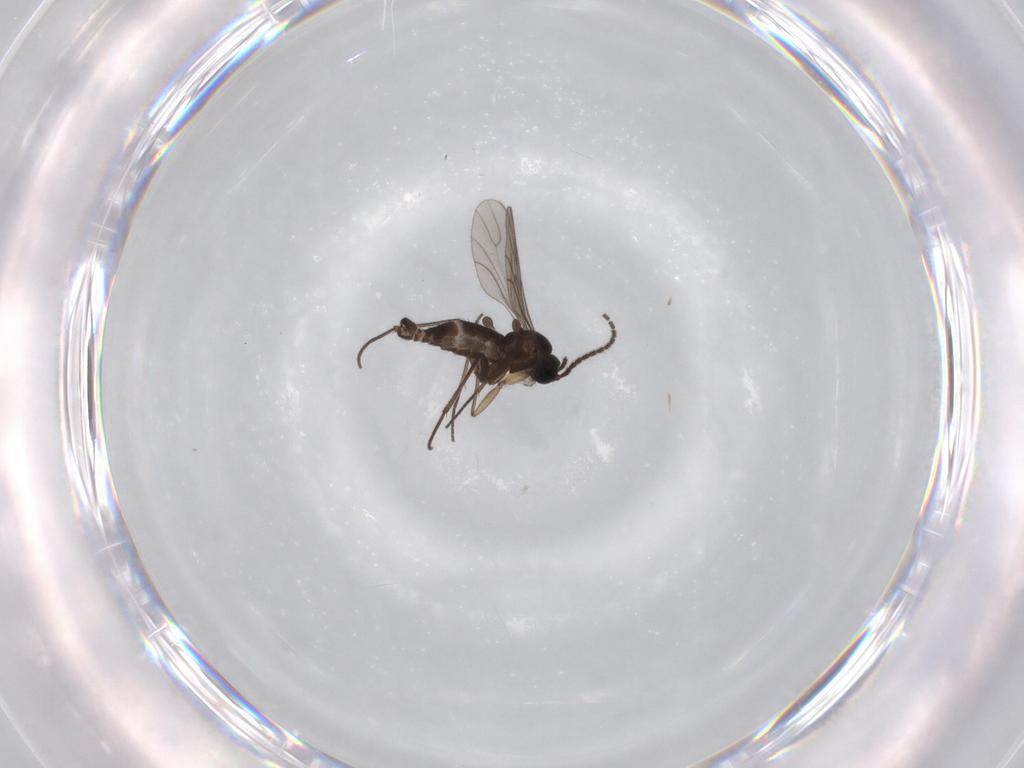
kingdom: Animalia
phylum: Arthropoda
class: Insecta
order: Diptera
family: Sciaridae
